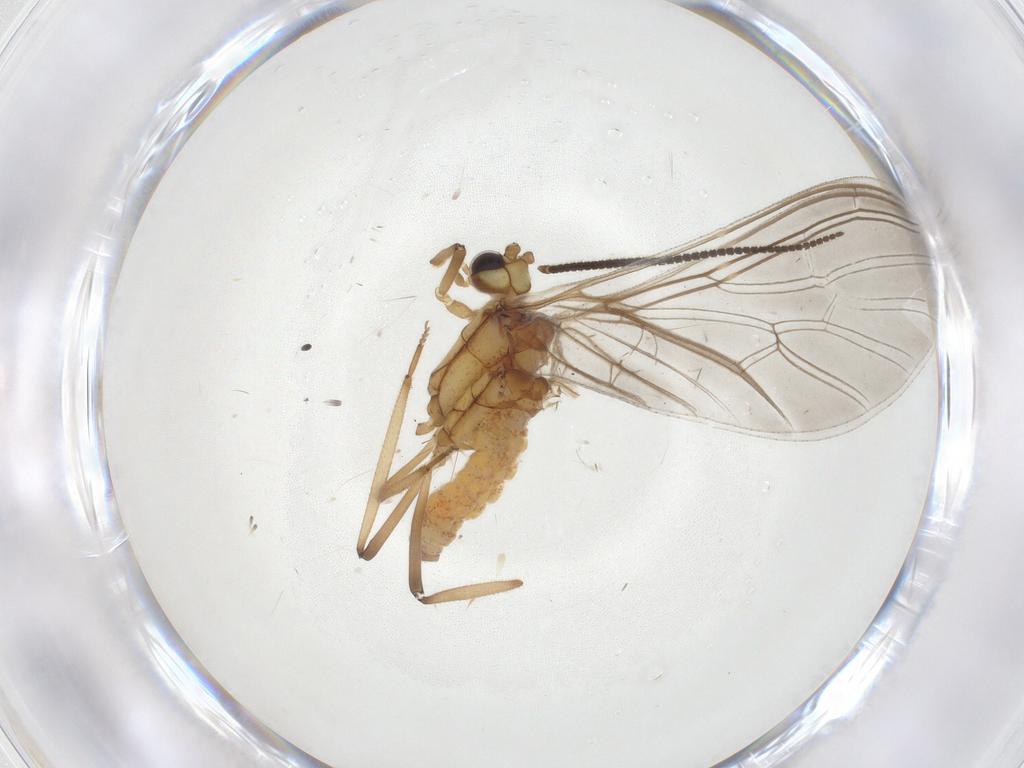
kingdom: Animalia
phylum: Arthropoda
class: Insecta
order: Neuroptera
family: Coniopterygidae
